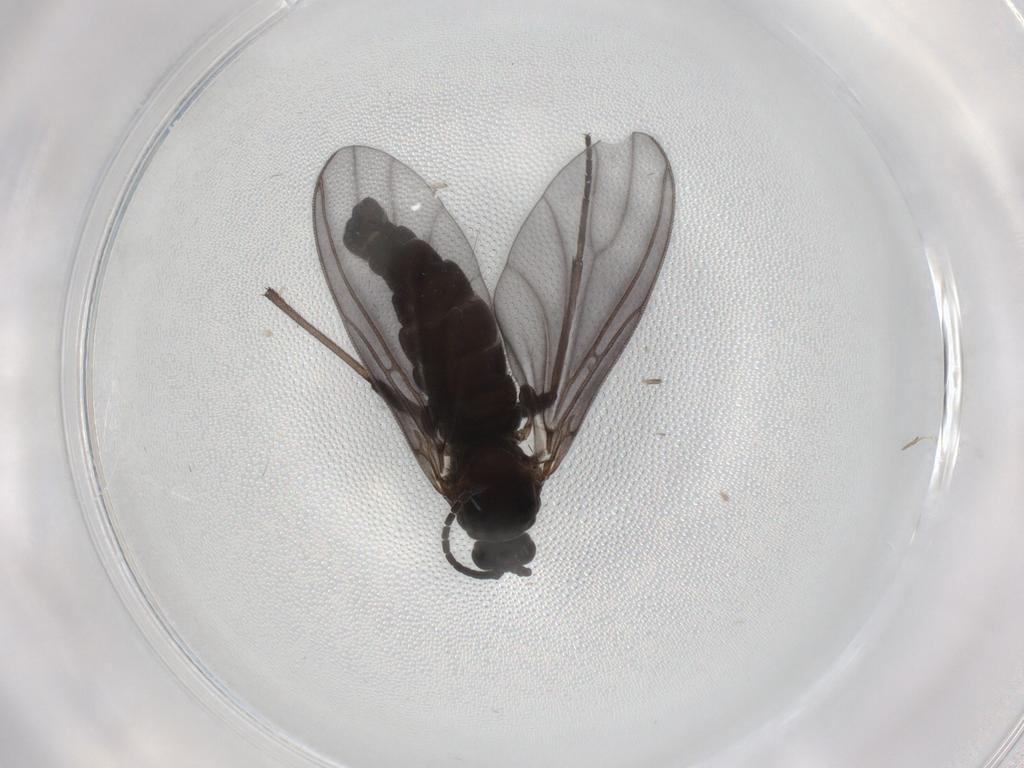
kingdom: Animalia
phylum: Arthropoda
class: Insecta
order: Diptera
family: Sciaridae
